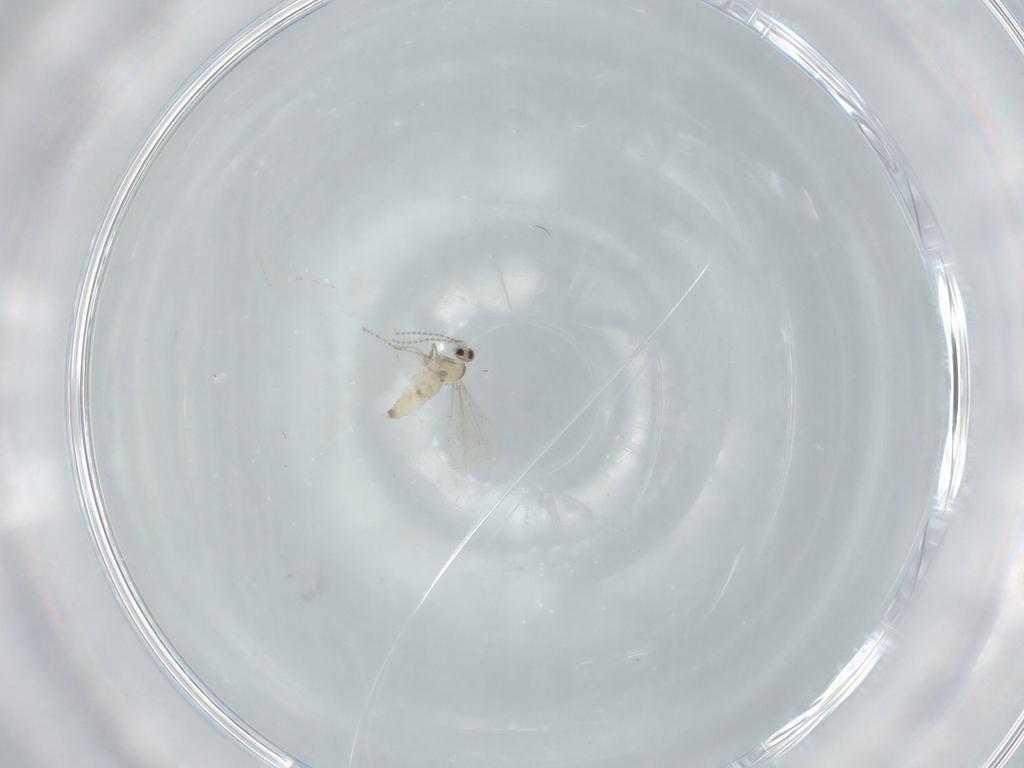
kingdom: Animalia
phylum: Arthropoda
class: Insecta
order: Diptera
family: Cecidomyiidae
